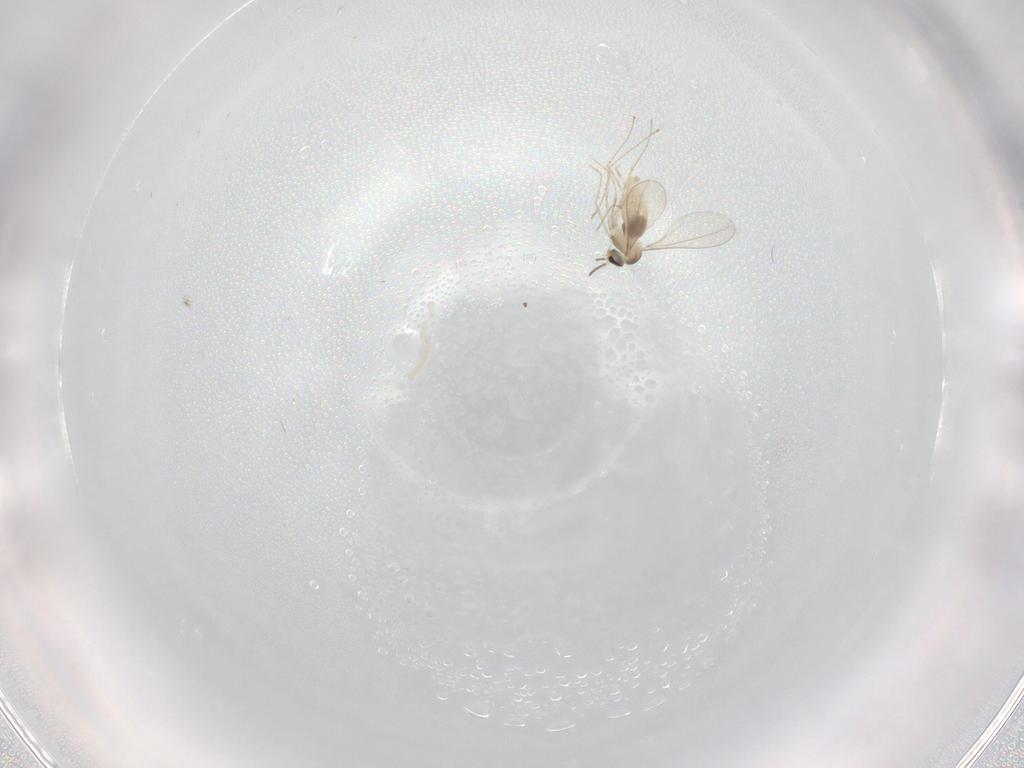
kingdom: Animalia
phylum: Arthropoda
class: Insecta
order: Diptera
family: Cecidomyiidae
